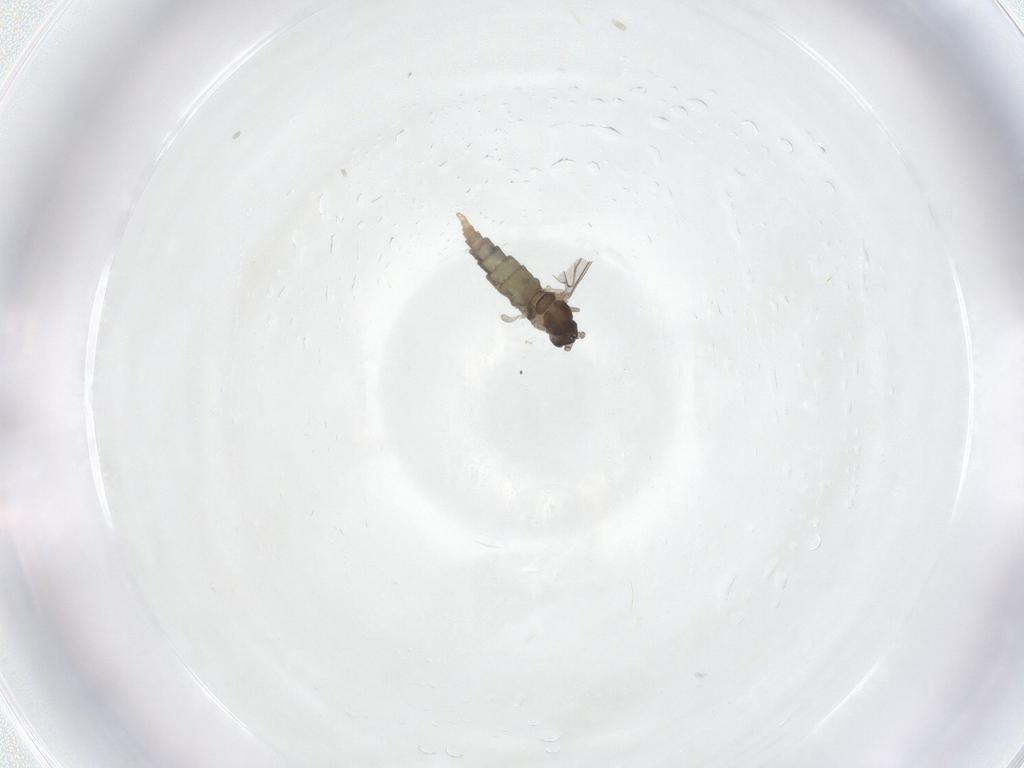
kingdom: Animalia
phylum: Arthropoda
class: Insecta
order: Diptera
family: Cecidomyiidae
